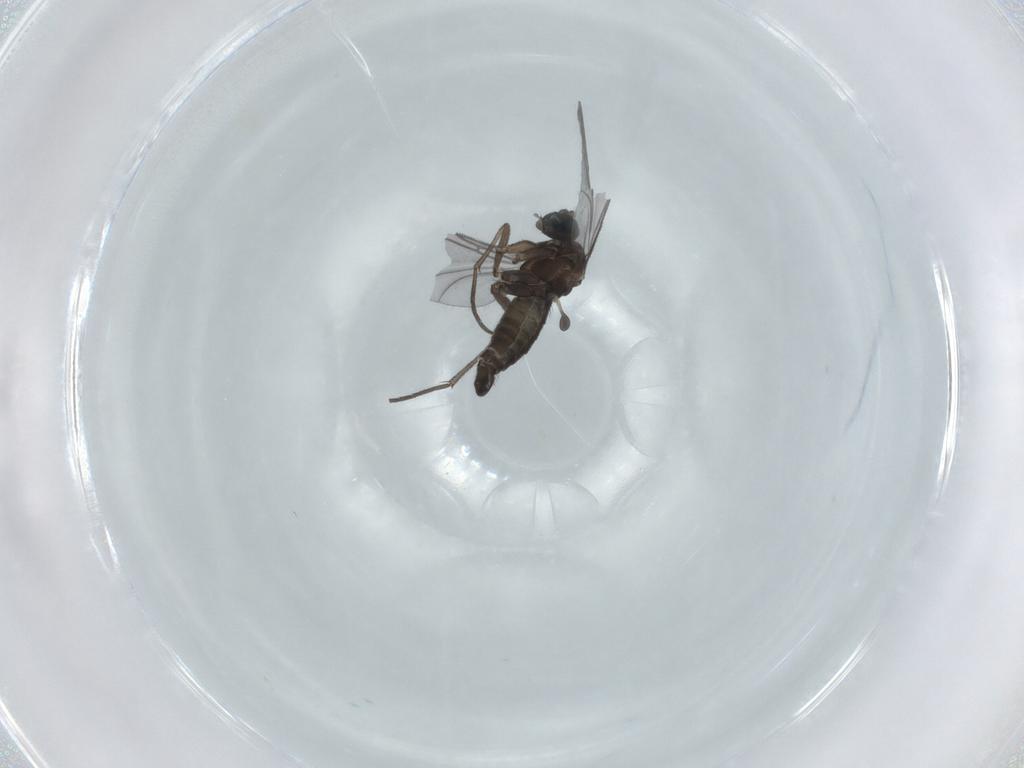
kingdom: Animalia
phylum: Arthropoda
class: Insecta
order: Diptera
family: Sciaridae
